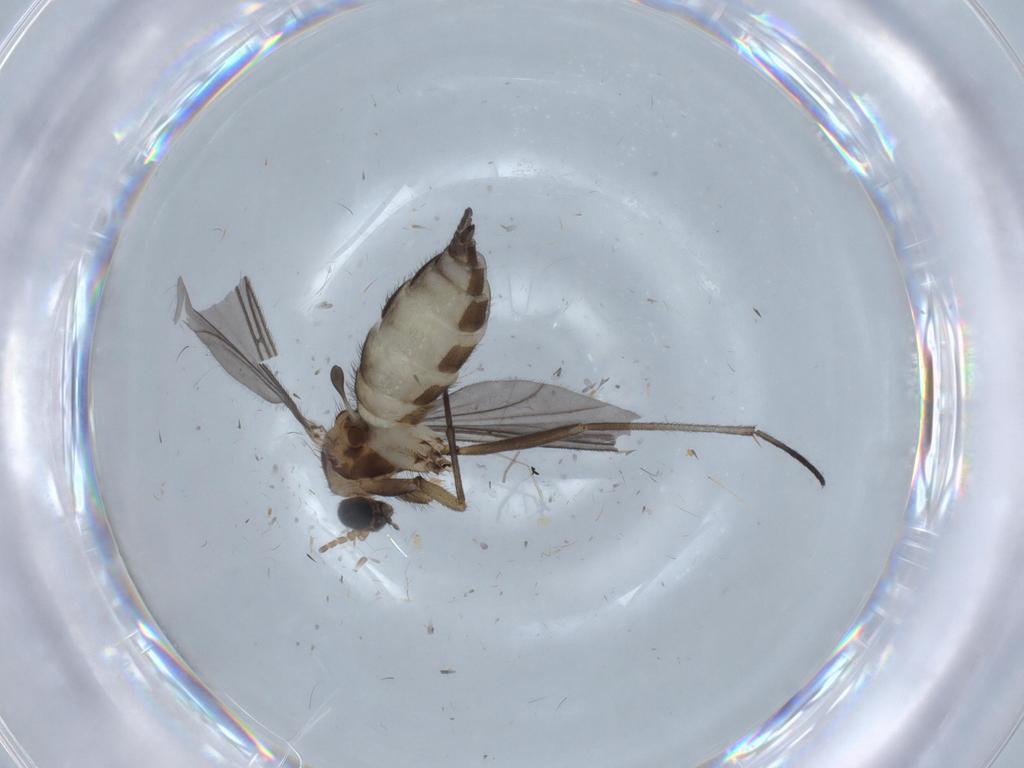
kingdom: Animalia
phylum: Arthropoda
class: Insecta
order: Diptera
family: Sciaridae
